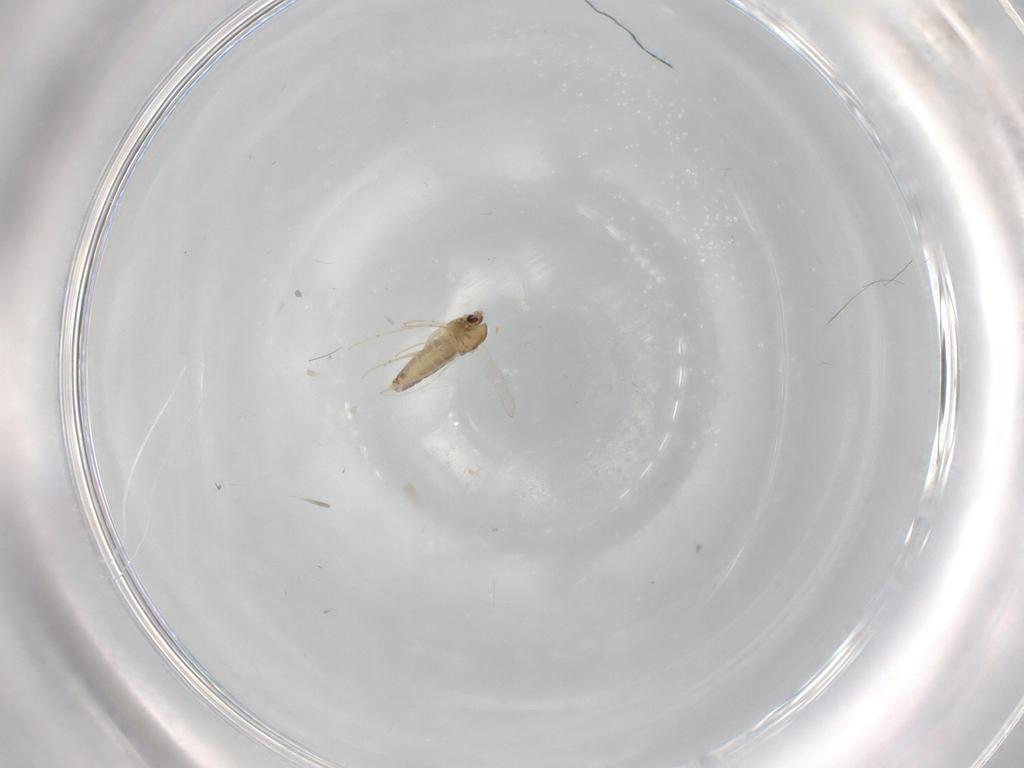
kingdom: Animalia
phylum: Arthropoda
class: Insecta
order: Diptera
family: Chironomidae
